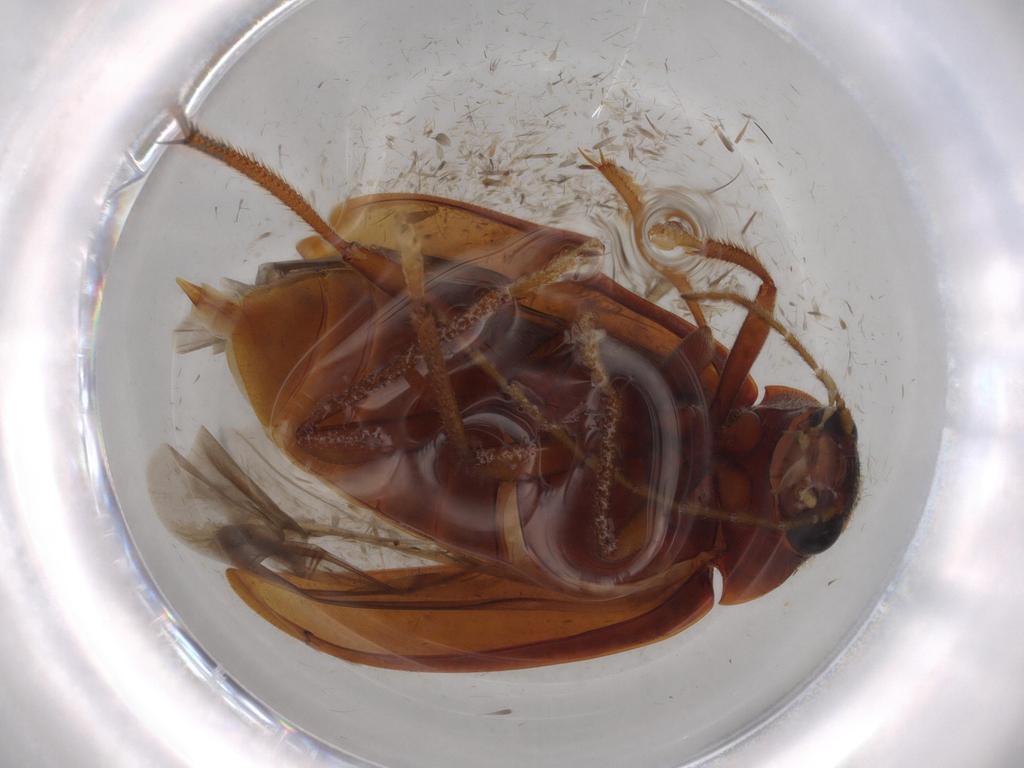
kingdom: Animalia
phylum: Arthropoda
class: Insecta
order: Coleoptera
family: Ptilodactylidae
